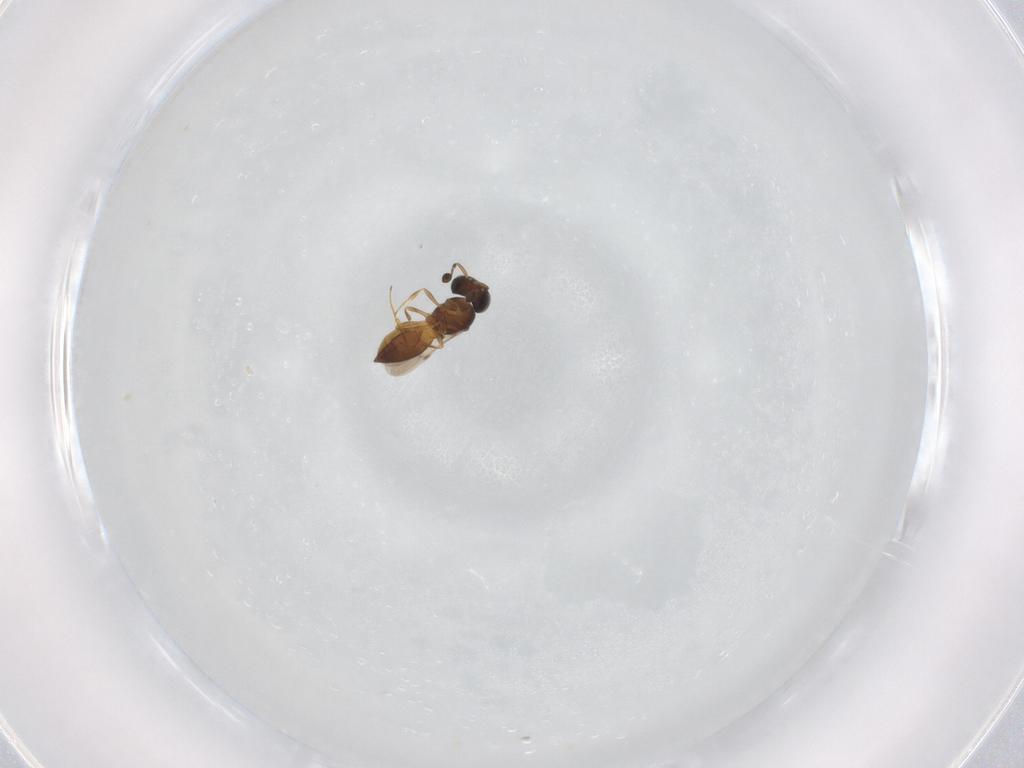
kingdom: Animalia
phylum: Arthropoda
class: Insecta
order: Hymenoptera
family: Scelionidae
